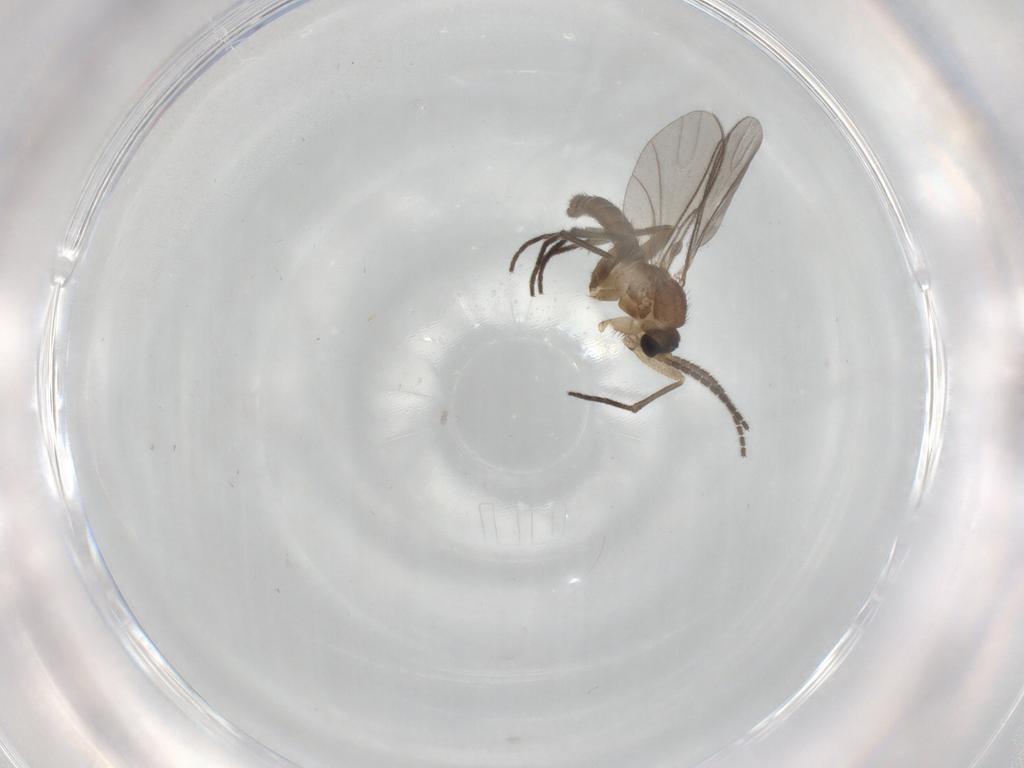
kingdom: Animalia
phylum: Arthropoda
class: Insecta
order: Diptera
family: Sciaridae
